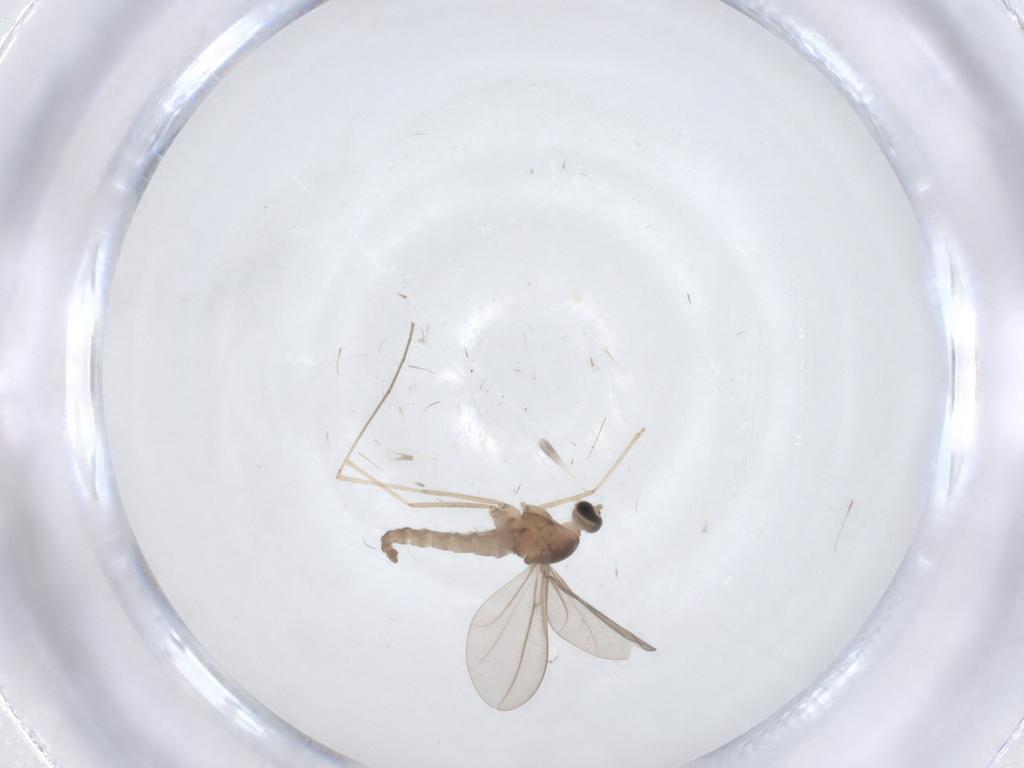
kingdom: Animalia
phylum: Arthropoda
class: Insecta
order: Diptera
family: Cecidomyiidae
